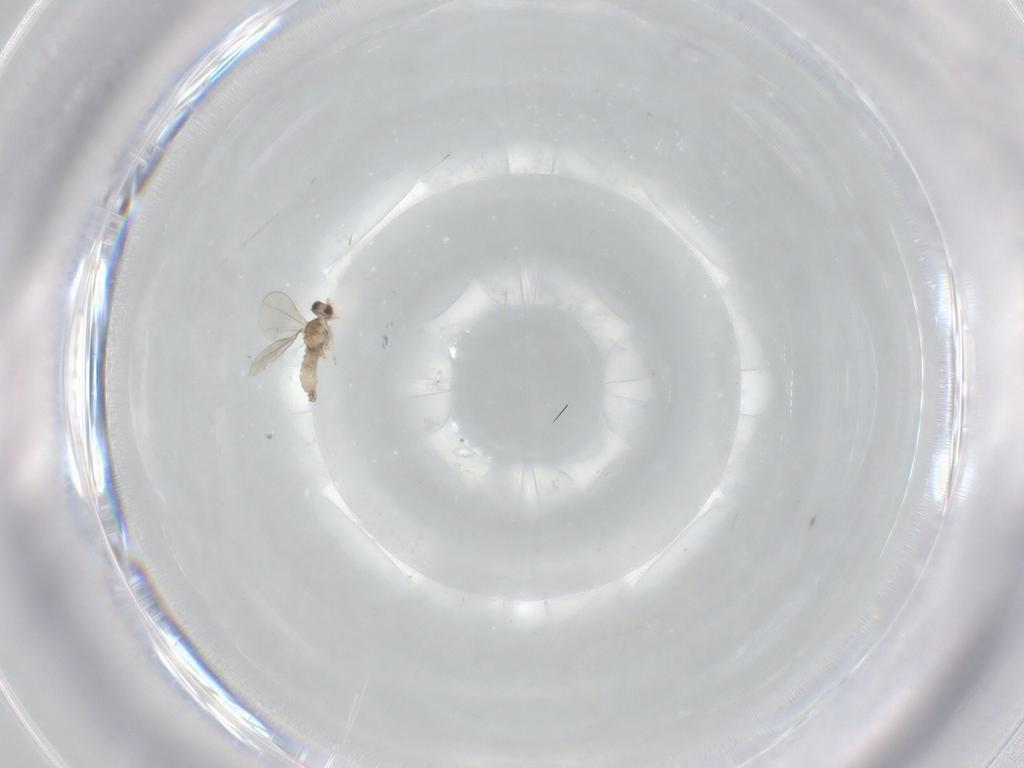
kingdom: Animalia
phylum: Arthropoda
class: Insecta
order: Diptera
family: Cecidomyiidae
